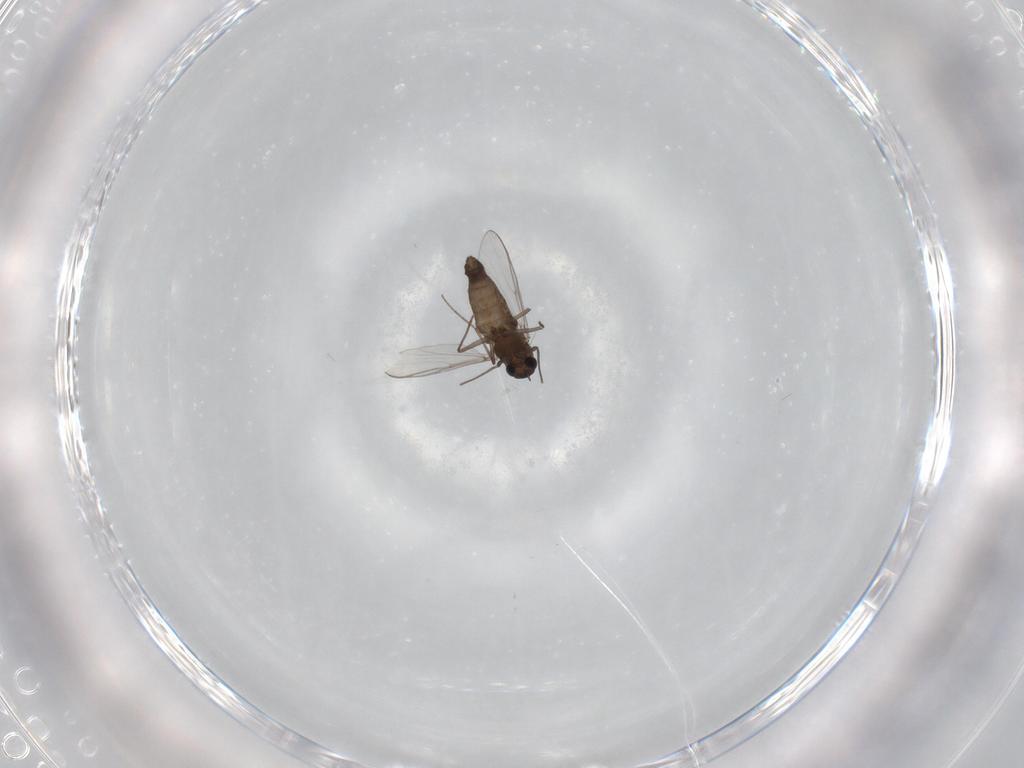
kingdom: Animalia
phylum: Arthropoda
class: Insecta
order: Diptera
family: Chironomidae
